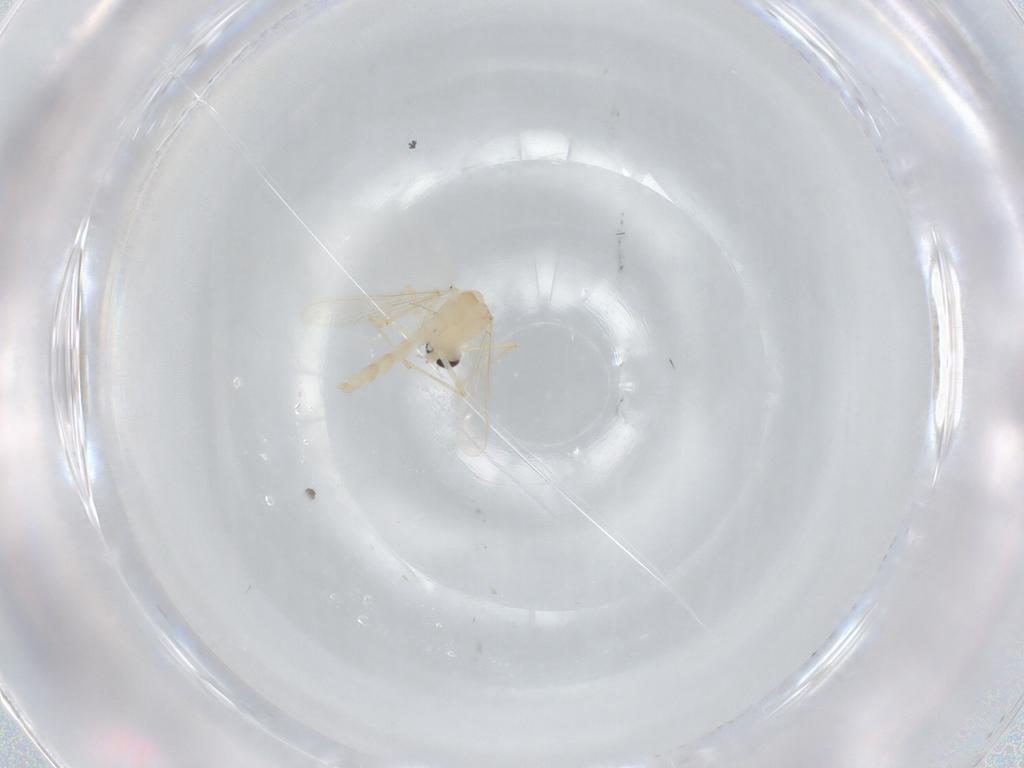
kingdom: Animalia
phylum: Arthropoda
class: Insecta
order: Diptera
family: Chironomidae
